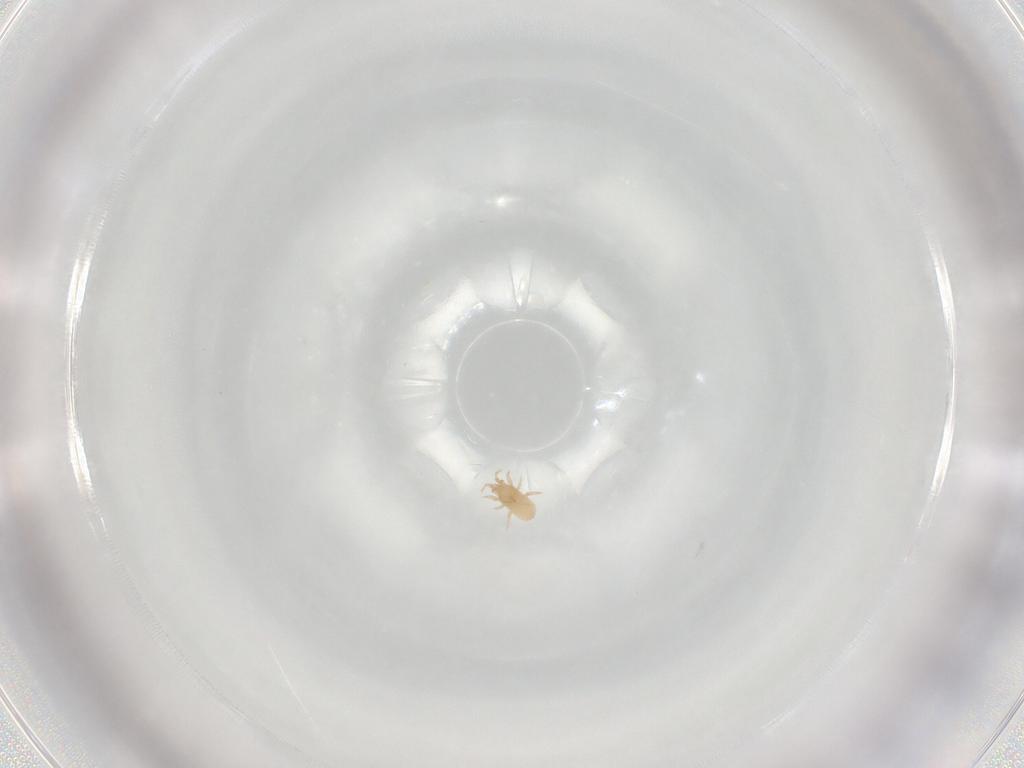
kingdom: Animalia
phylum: Arthropoda
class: Arachnida
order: Mesostigmata
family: Ascidae
